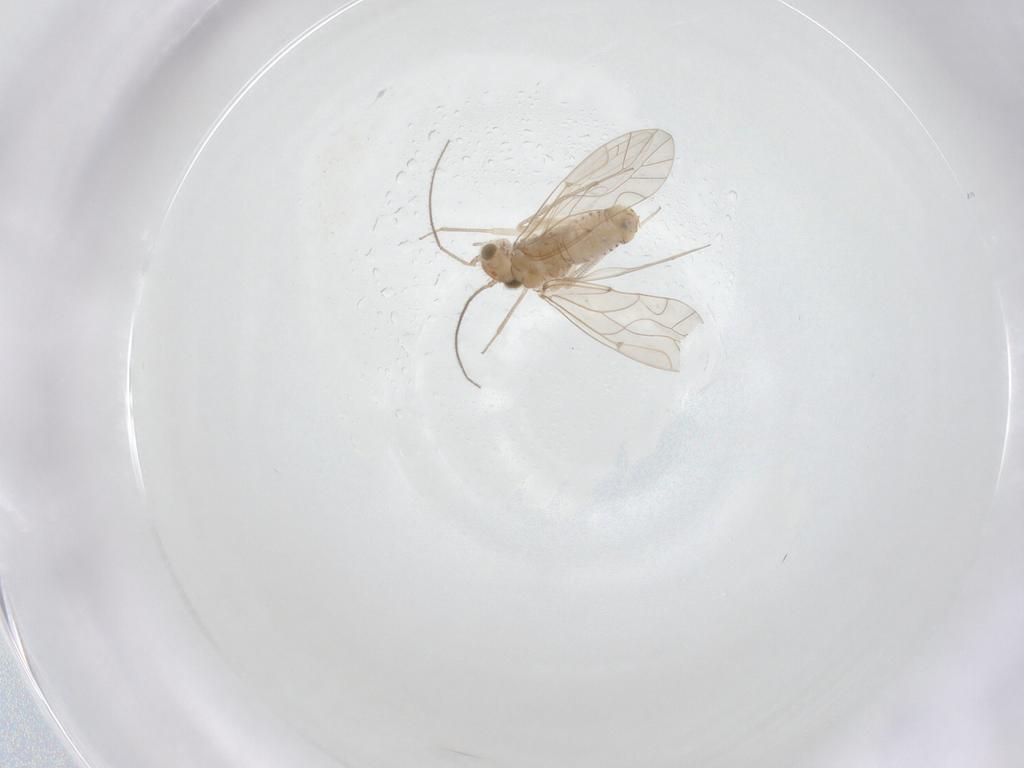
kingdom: Animalia
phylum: Arthropoda
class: Insecta
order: Psocodea
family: Lachesillidae
